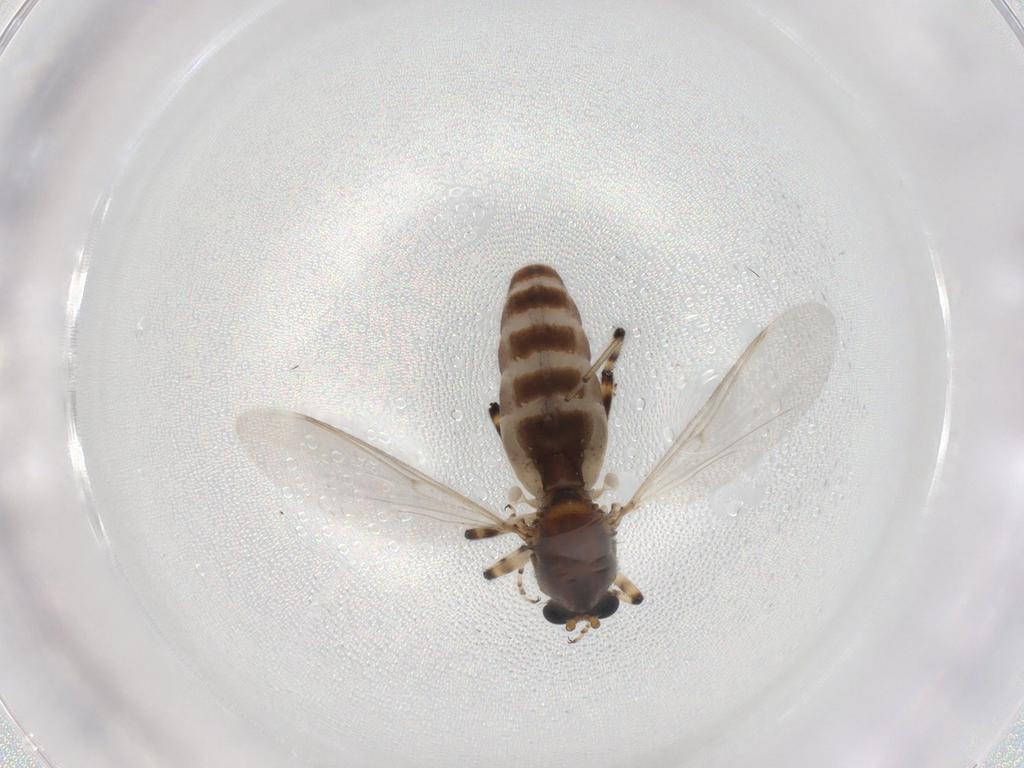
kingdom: Animalia
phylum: Arthropoda
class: Insecta
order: Diptera
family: Ceratopogonidae
